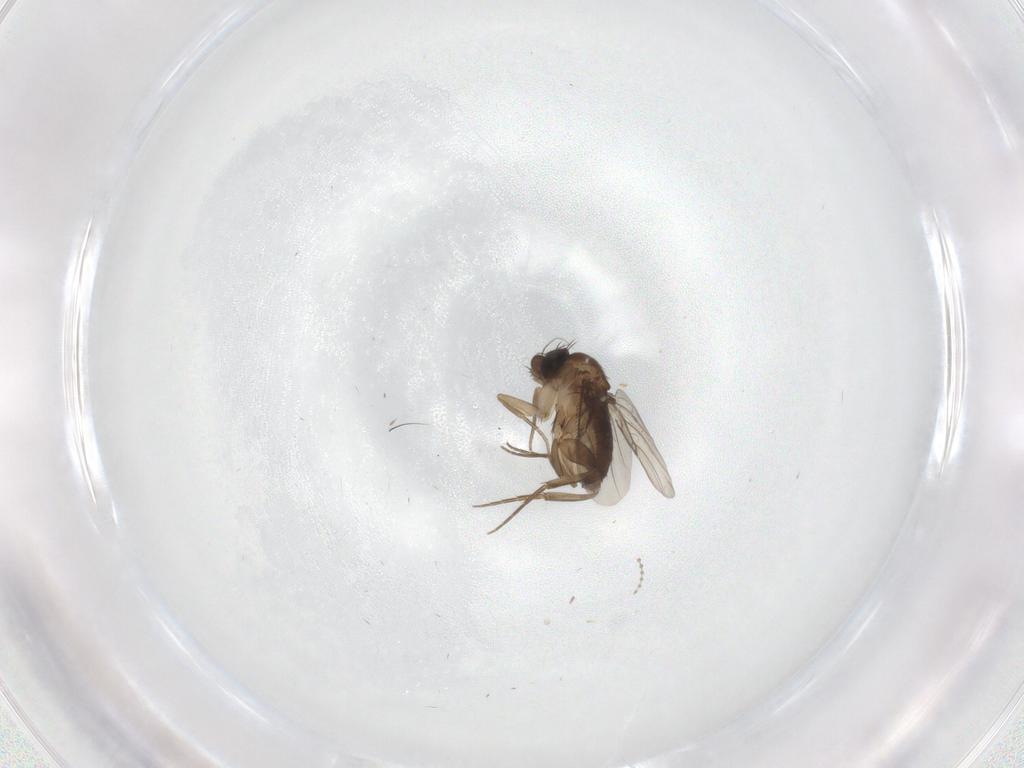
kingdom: Animalia
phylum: Arthropoda
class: Insecta
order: Diptera
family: Phoridae
